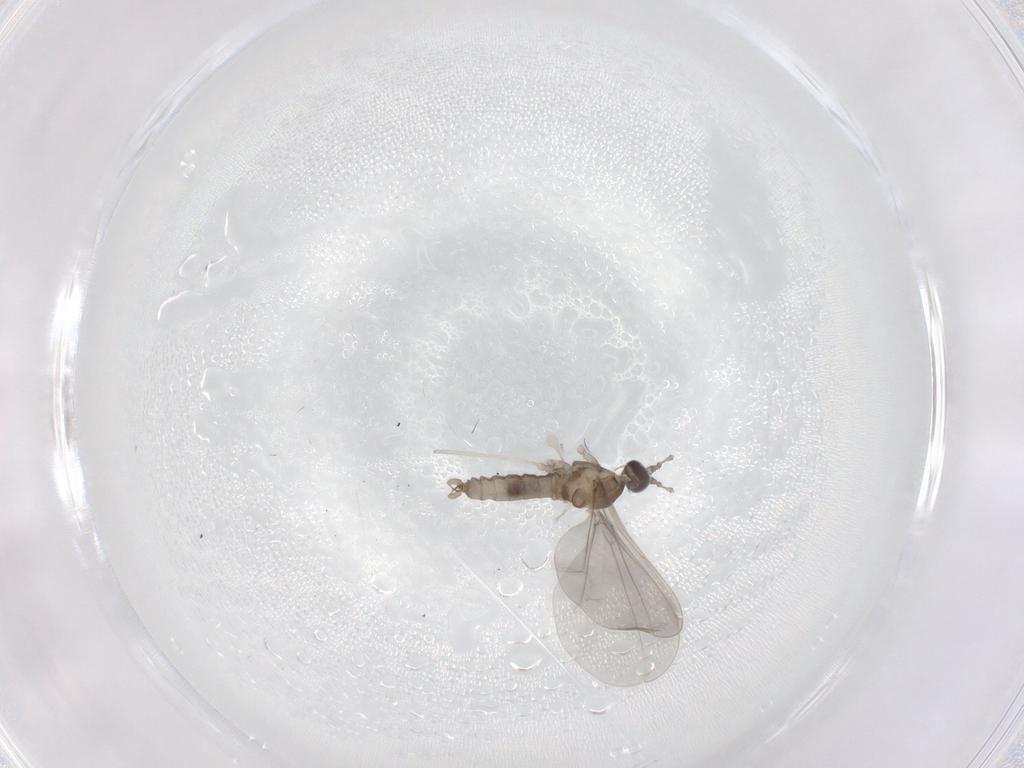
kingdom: Animalia
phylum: Arthropoda
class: Insecta
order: Diptera
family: Cecidomyiidae
